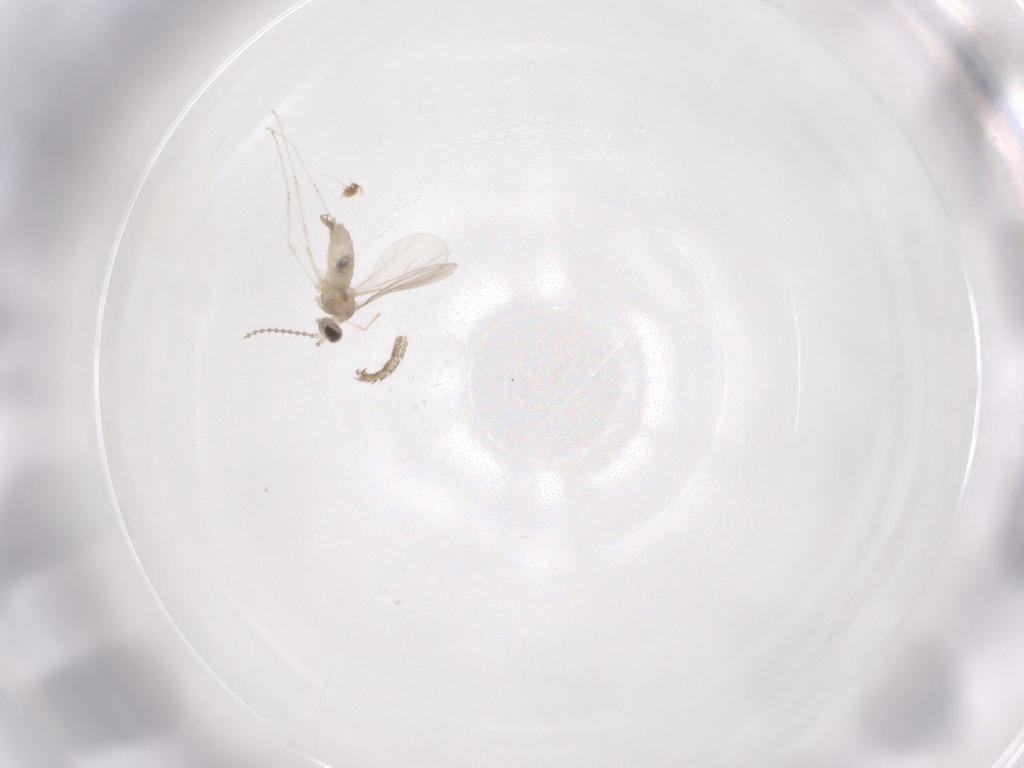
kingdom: Animalia
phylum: Arthropoda
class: Insecta
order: Diptera
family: Cecidomyiidae
